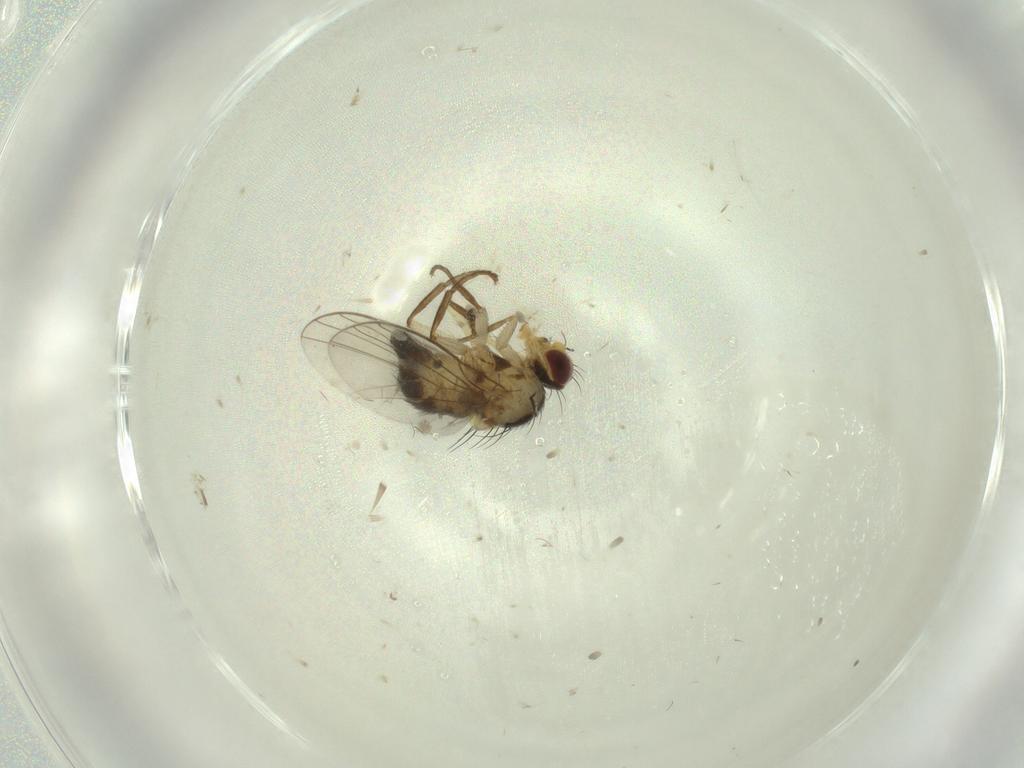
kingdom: Animalia
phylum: Arthropoda
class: Insecta
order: Diptera
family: Agromyzidae
